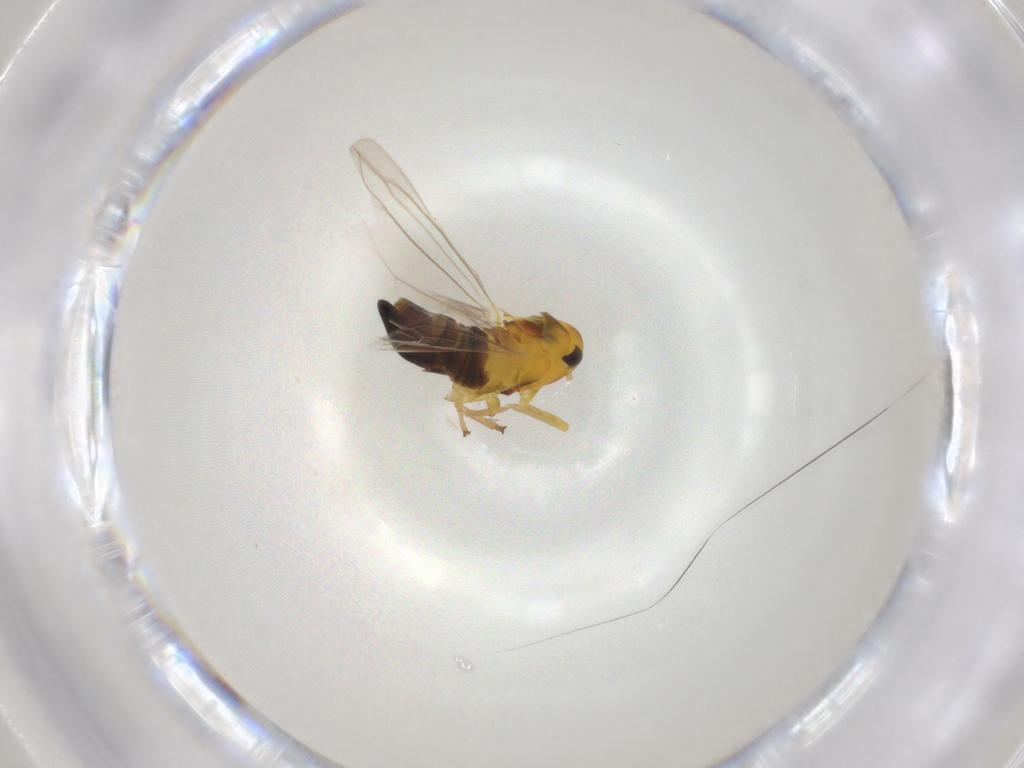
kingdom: Animalia
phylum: Arthropoda
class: Insecta
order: Hemiptera
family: Cicadellidae
